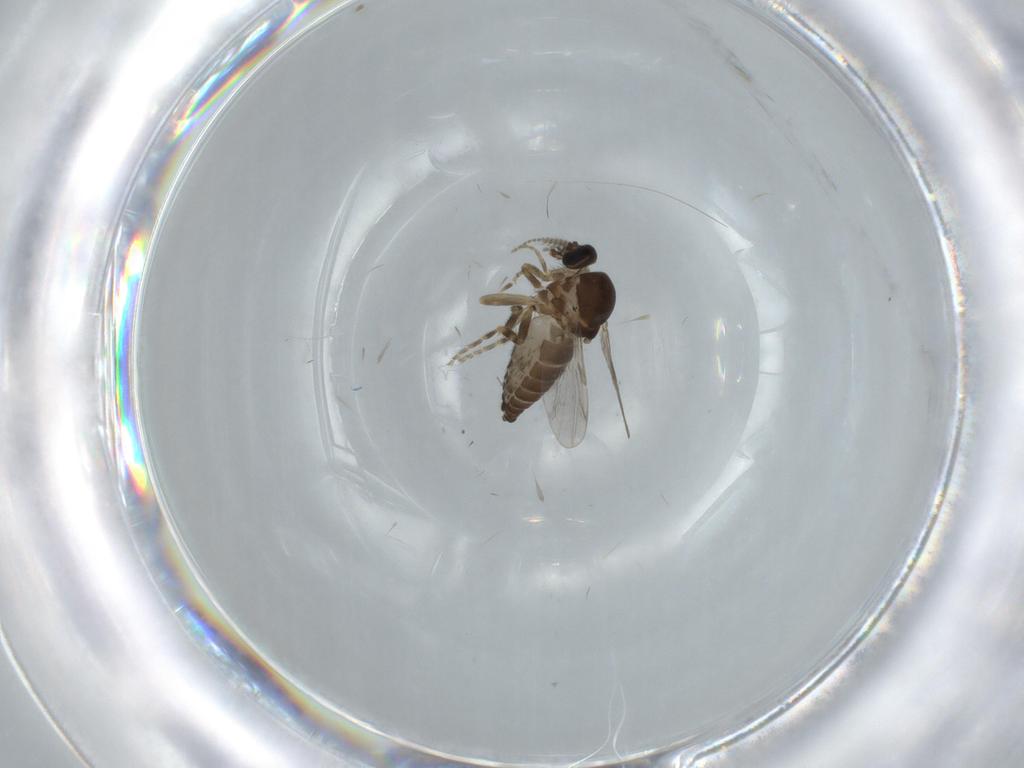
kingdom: Animalia
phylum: Arthropoda
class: Insecta
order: Diptera
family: Ceratopogonidae
